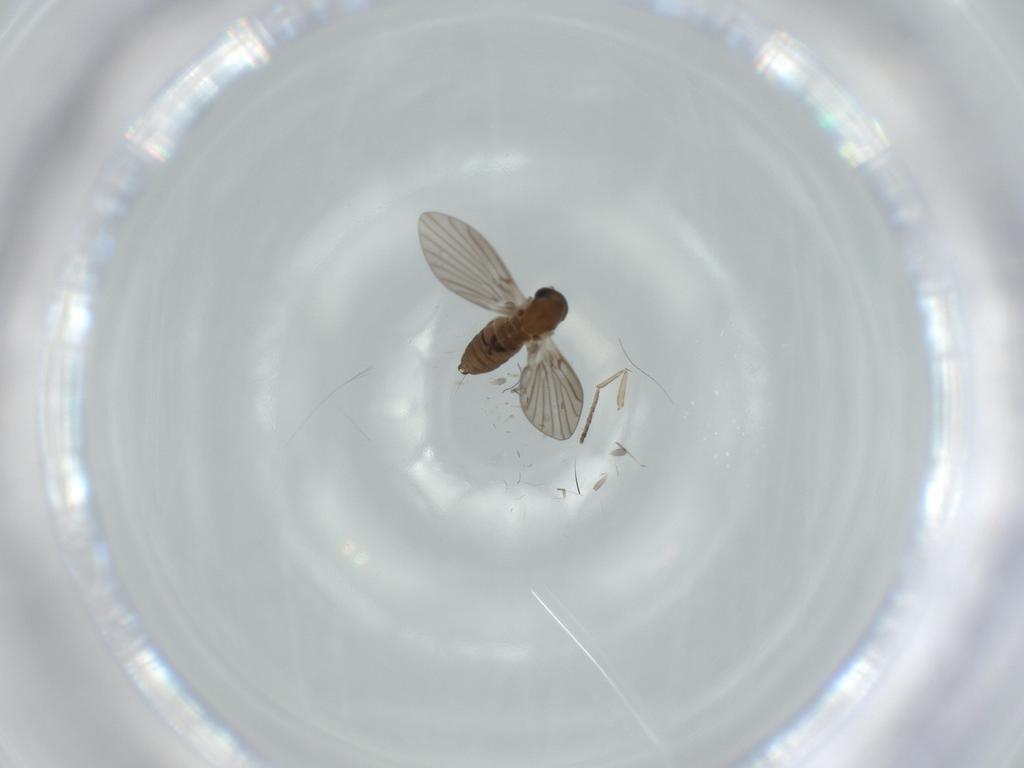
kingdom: Animalia
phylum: Arthropoda
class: Insecta
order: Diptera
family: Psychodidae
